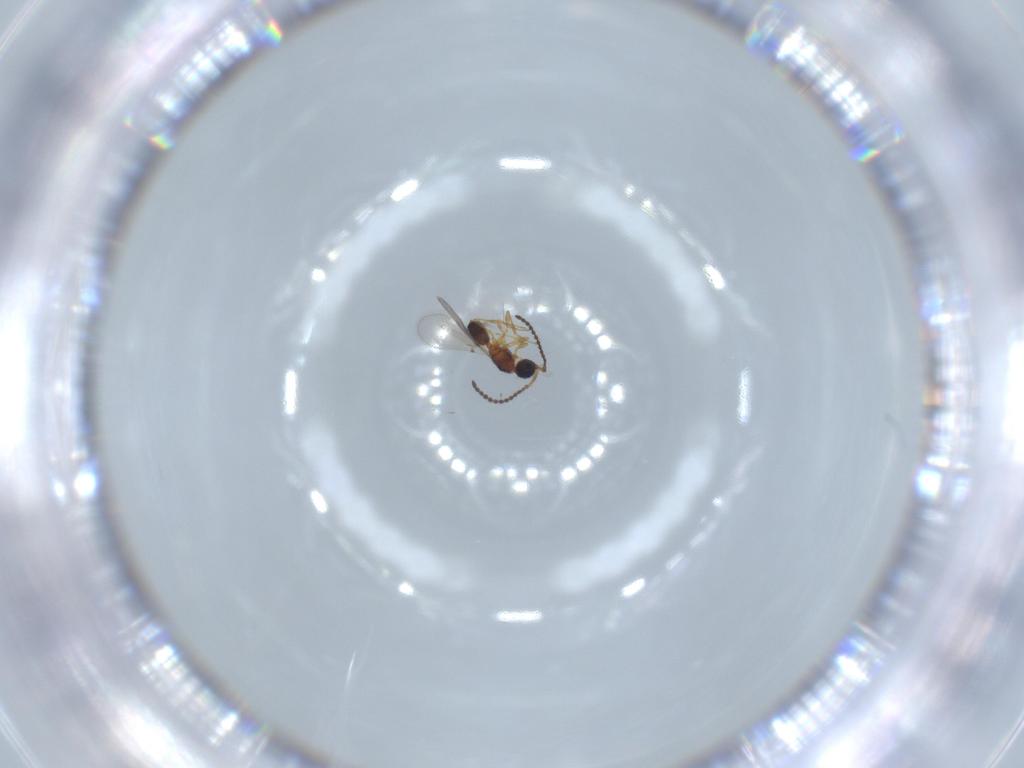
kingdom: Animalia
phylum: Arthropoda
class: Insecta
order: Hymenoptera
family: Diapriidae
